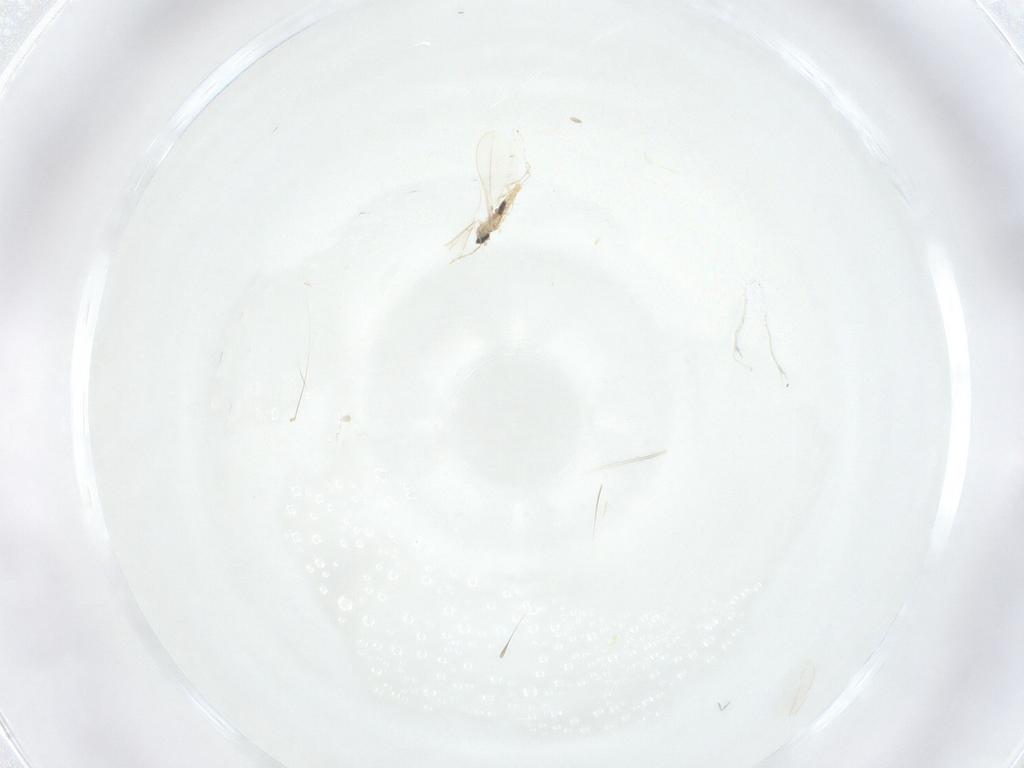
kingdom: Animalia
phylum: Arthropoda
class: Insecta
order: Diptera
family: Cecidomyiidae
